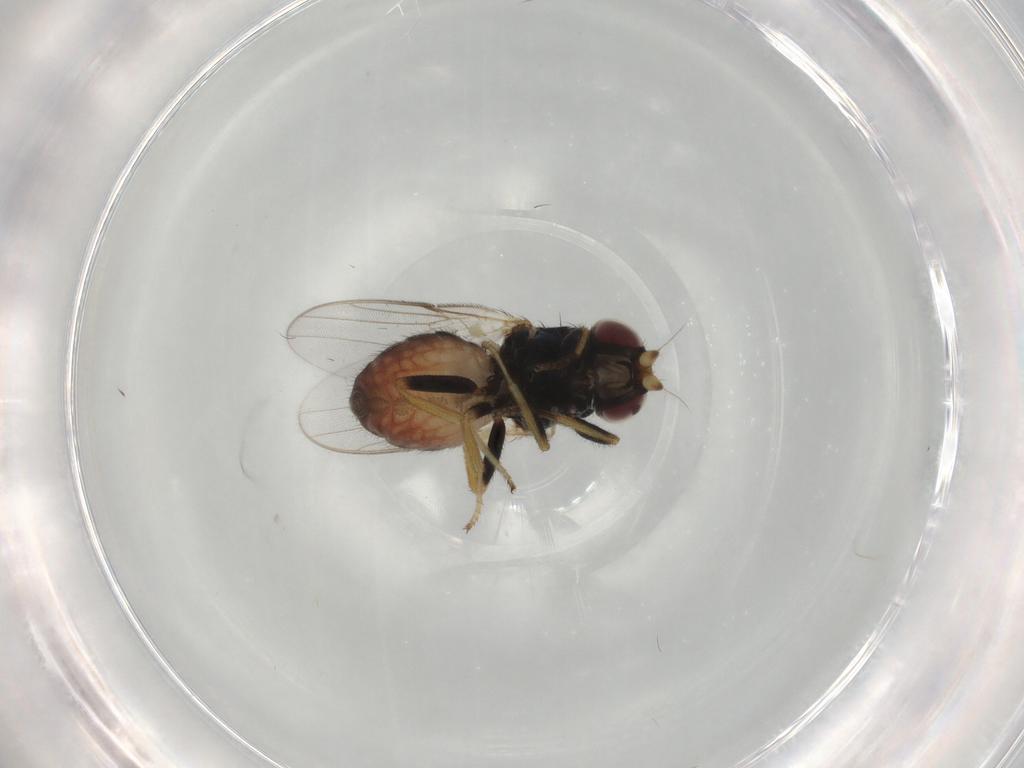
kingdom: Animalia
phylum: Arthropoda
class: Insecta
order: Diptera
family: Chloropidae
